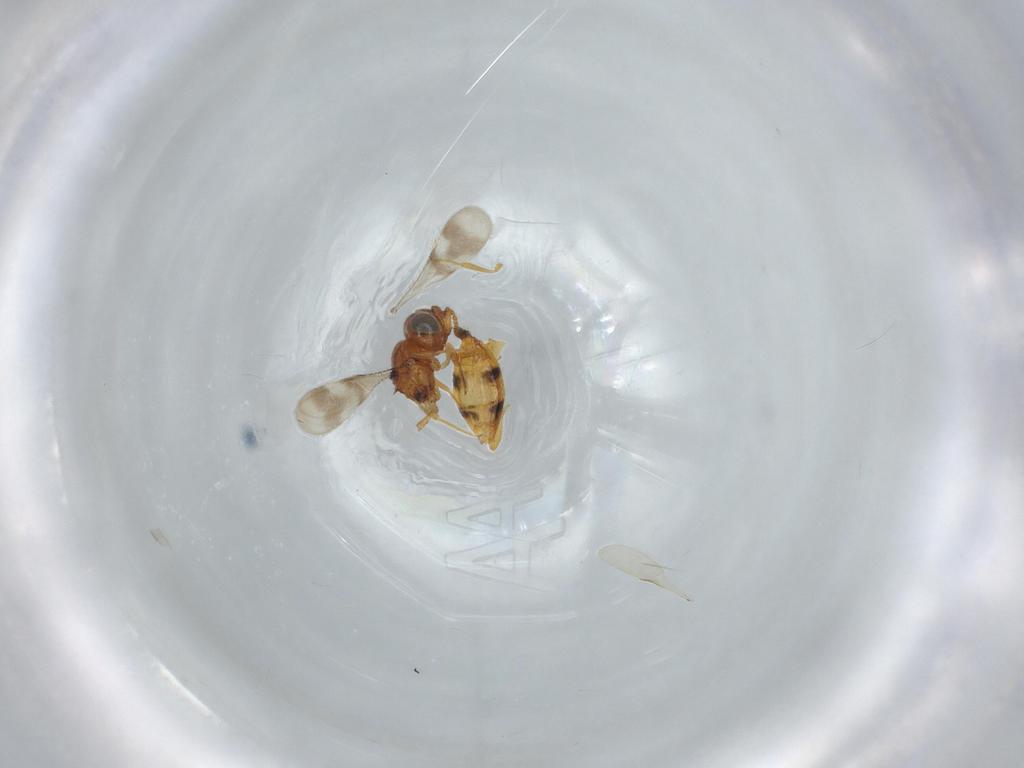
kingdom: Animalia
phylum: Arthropoda
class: Insecta
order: Hymenoptera
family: Scelionidae
